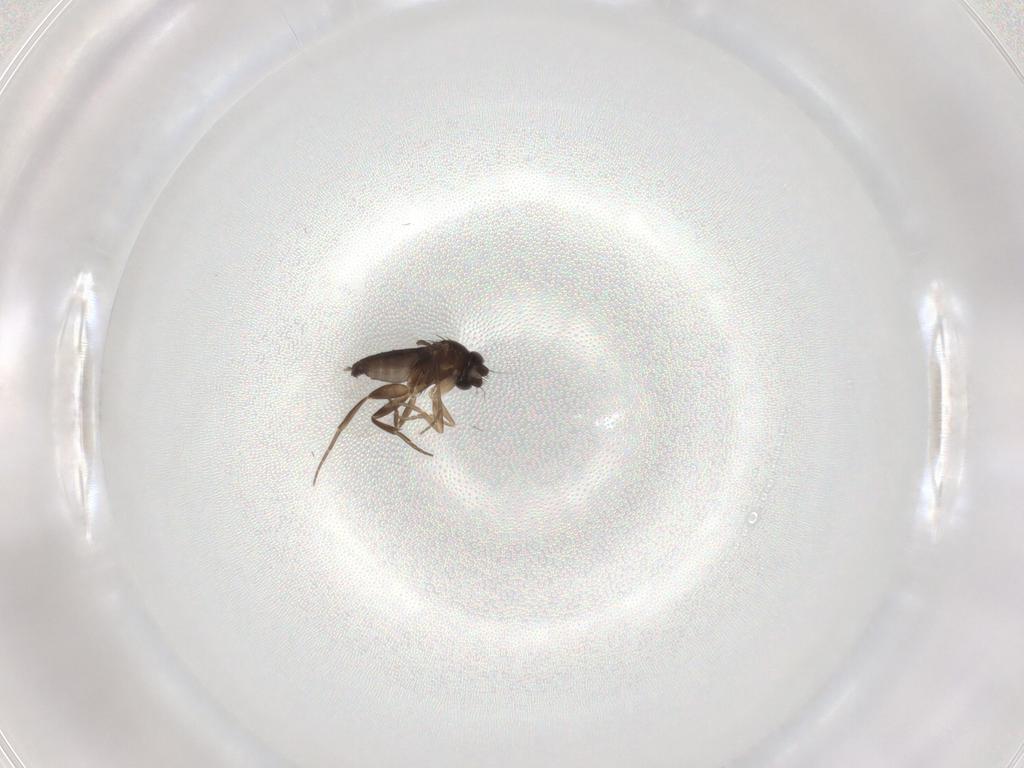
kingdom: Animalia
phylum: Arthropoda
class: Insecta
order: Diptera
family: Phoridae
